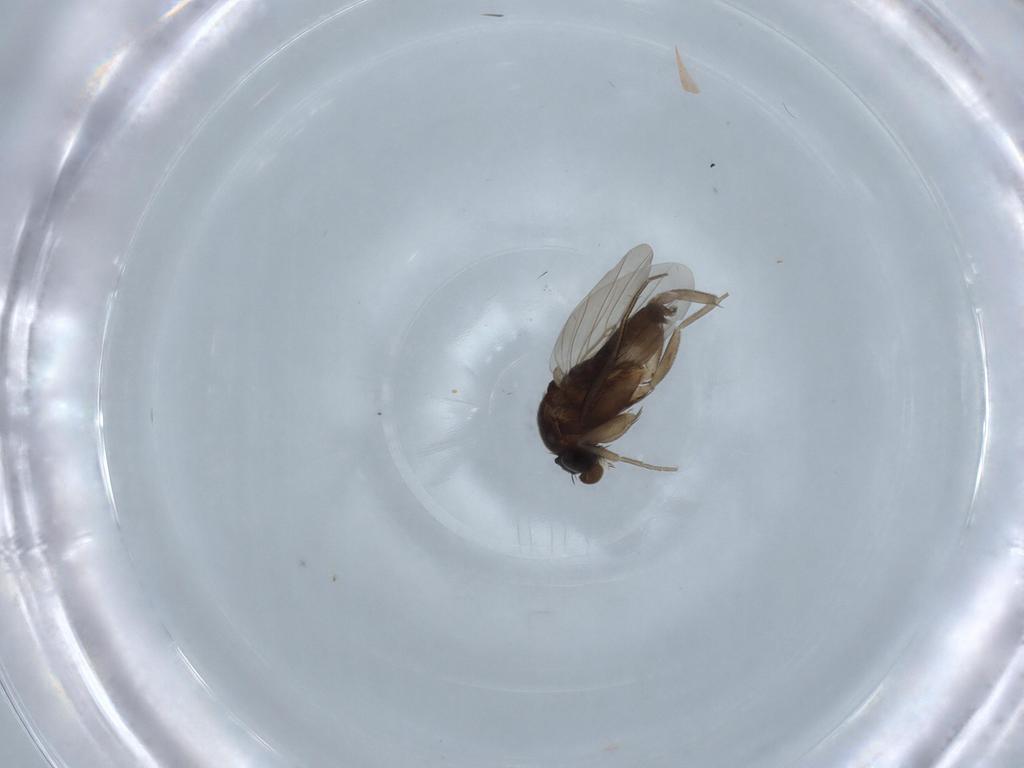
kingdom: Animalia
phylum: Arthropoda
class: Insecta
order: Diptera
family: Phoridae
